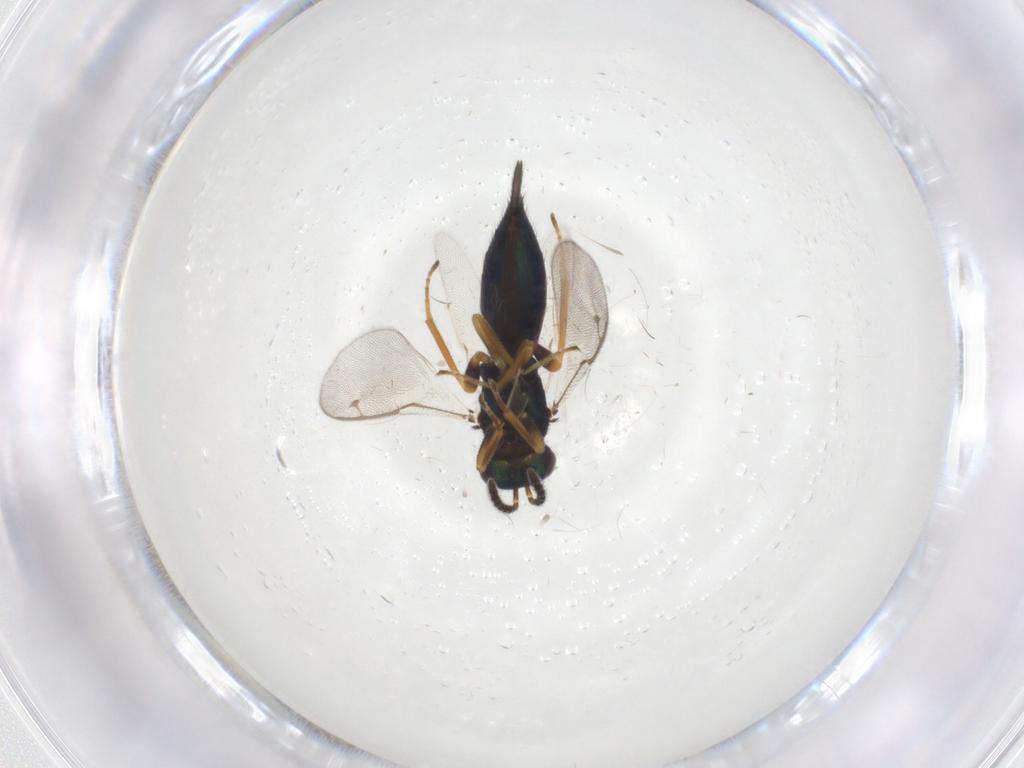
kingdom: Animalia
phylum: Arthropoda
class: Insecta
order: Hymenoptera
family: Pirenidae
